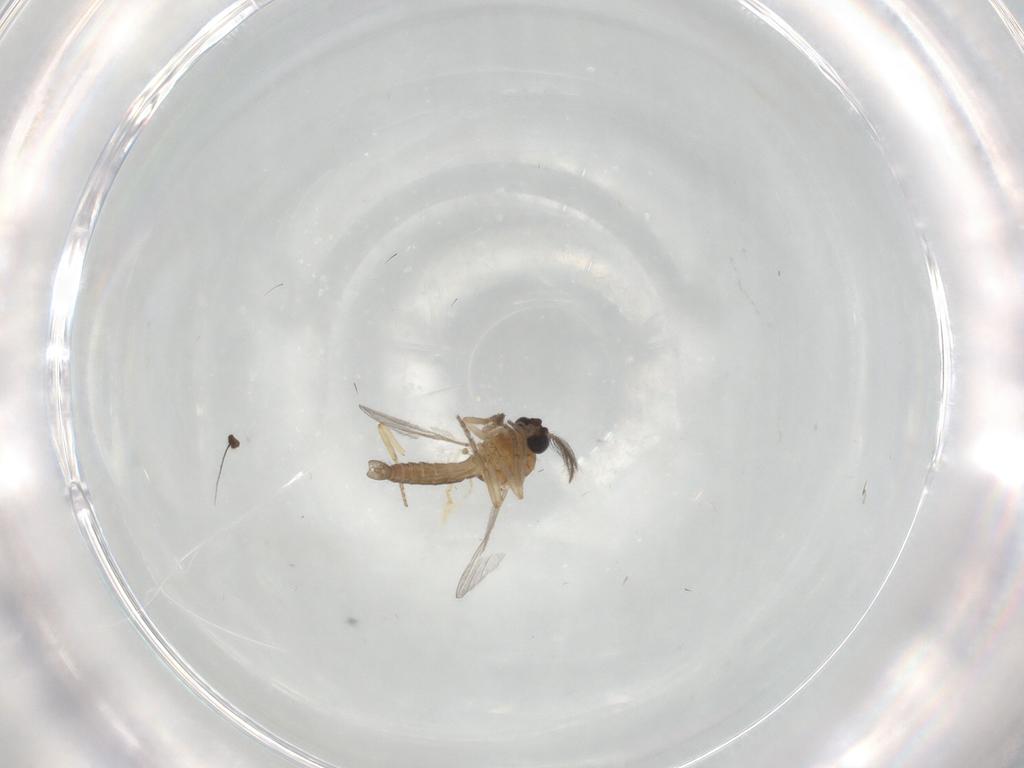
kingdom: Animalia
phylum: Arthropoda
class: Insecta
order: Diptera
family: Ceratopogonidae
